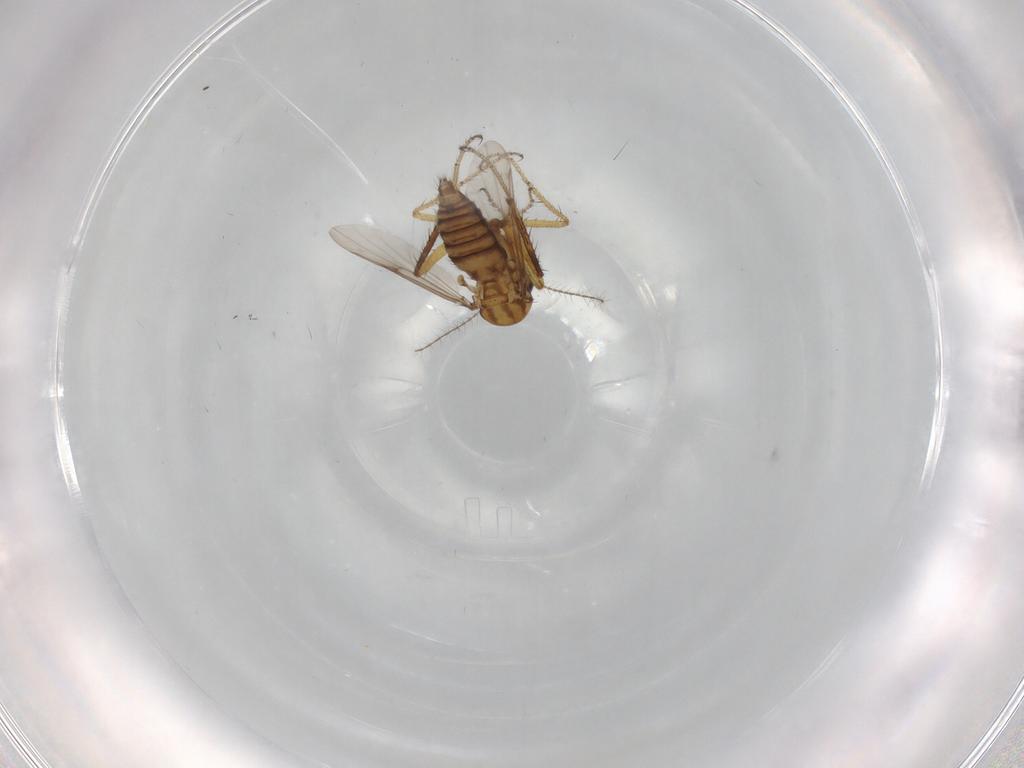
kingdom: Animalia
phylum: Arthropoda
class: Insecta
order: Diptera
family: Ceratopogonidae
